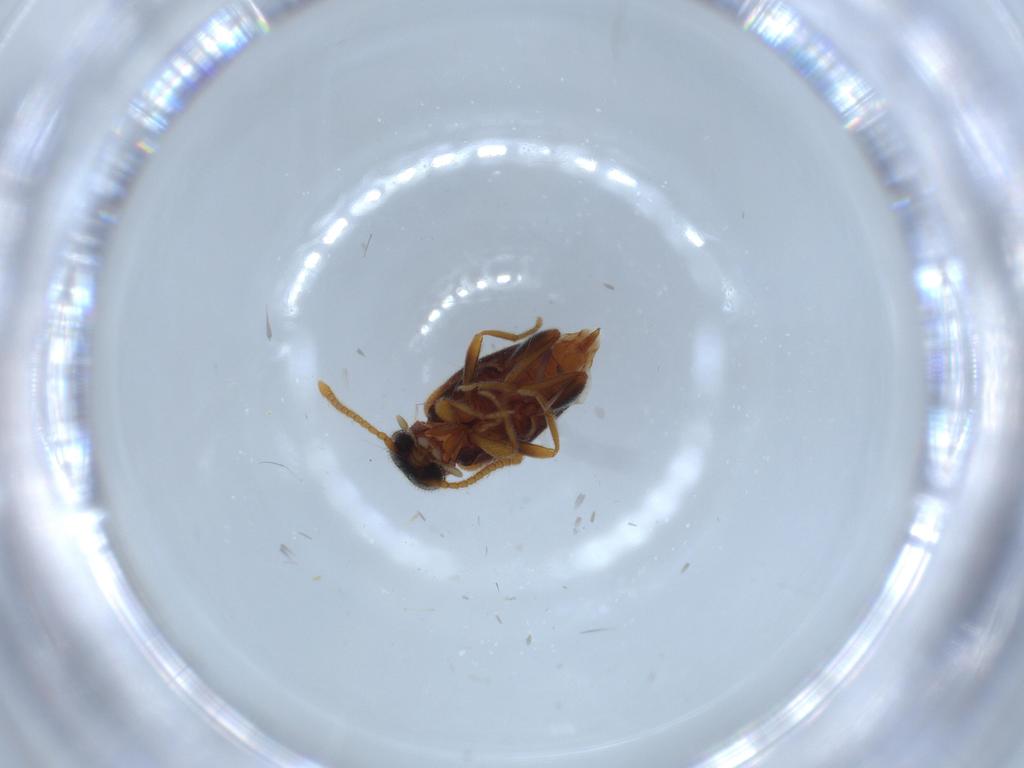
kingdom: Animalia
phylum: Arthropoda
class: Insecta
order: Coleoptera
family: Aderidae
